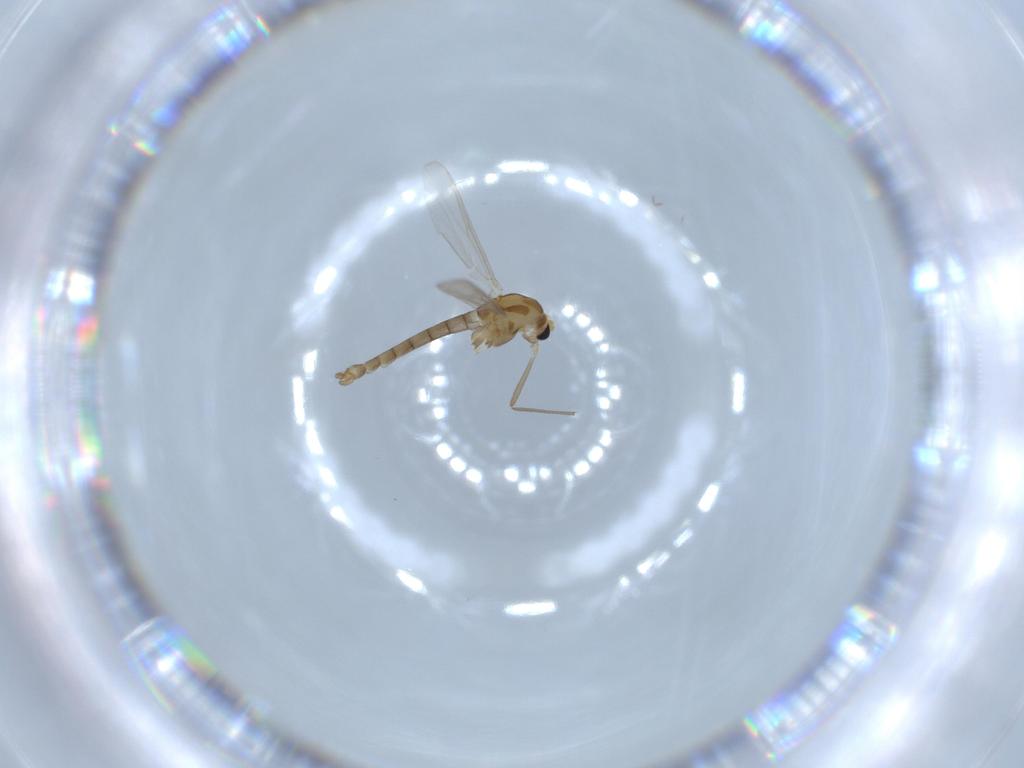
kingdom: Animalia
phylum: Arthropoda
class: Insecta
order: Diptera
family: Chironomidae
